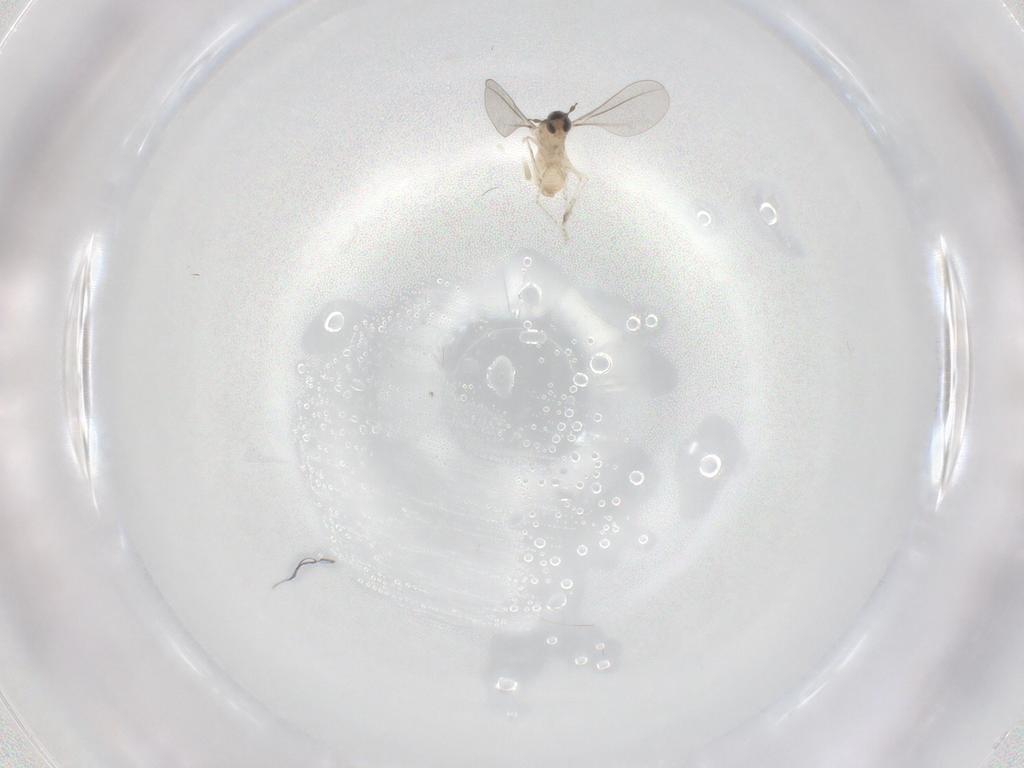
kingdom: Animalia
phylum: Arthropoda
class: Insecta
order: Diptera
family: Cecidomyiidae
